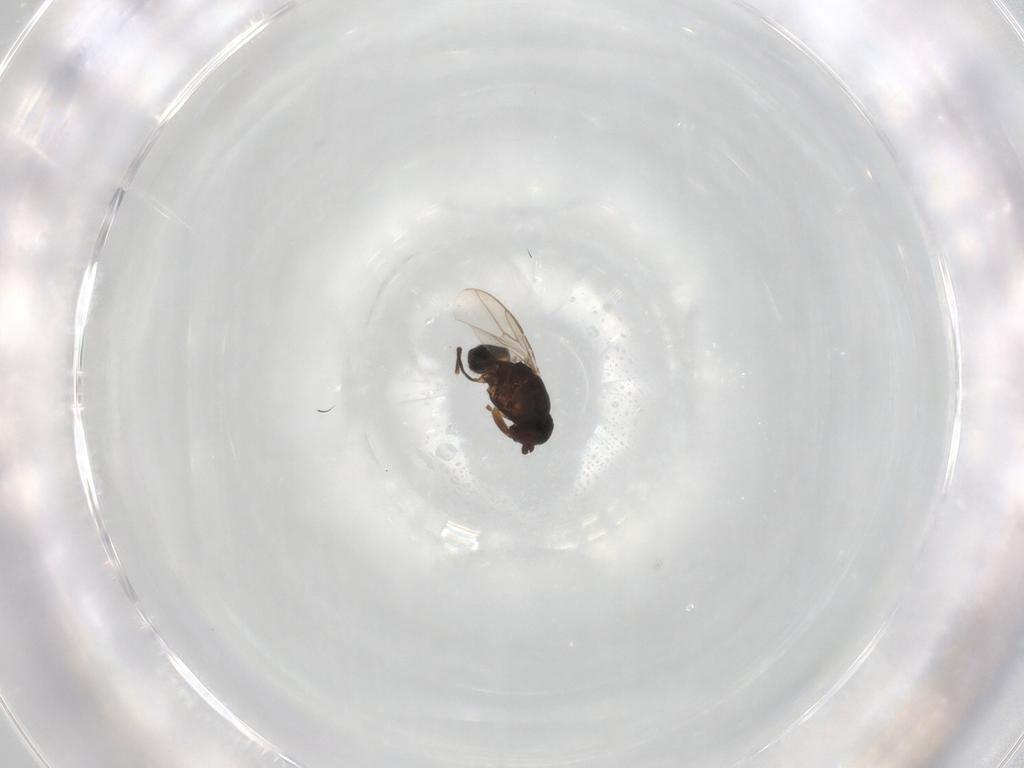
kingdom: Animalia
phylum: Arthropoda
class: Insecta
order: Diptera
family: Sphaeroceridae
